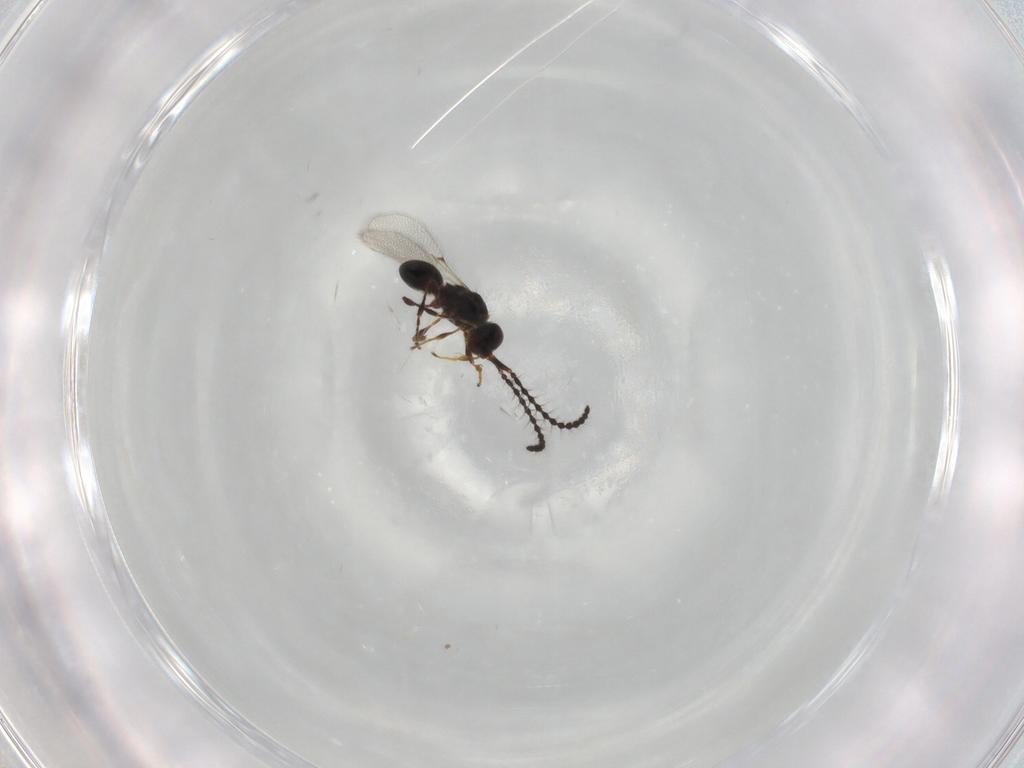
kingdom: Animalia
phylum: Arthropoda
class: Insecta
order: Hymenoptera
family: Diapriidae
